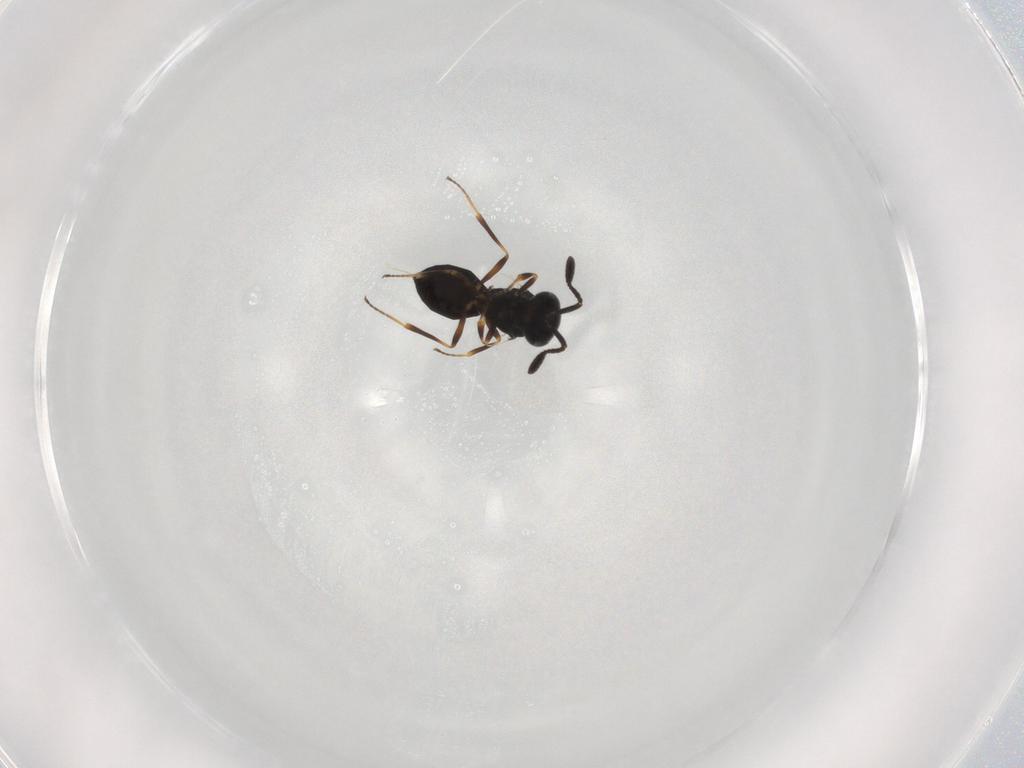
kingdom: Animalia
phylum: Arthropoda
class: Insecta
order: Hymenoptera
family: Scelionidae
